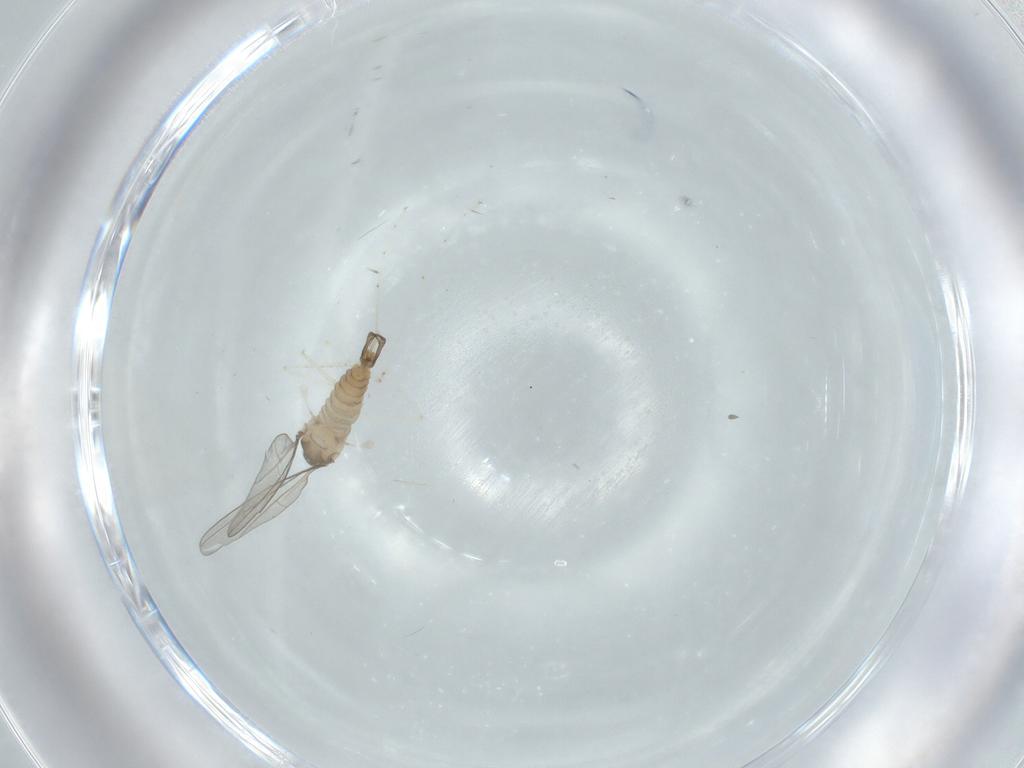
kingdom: Animalia
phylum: Arthropoda
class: Insecta
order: Diptera
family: Cecidomyiidae
